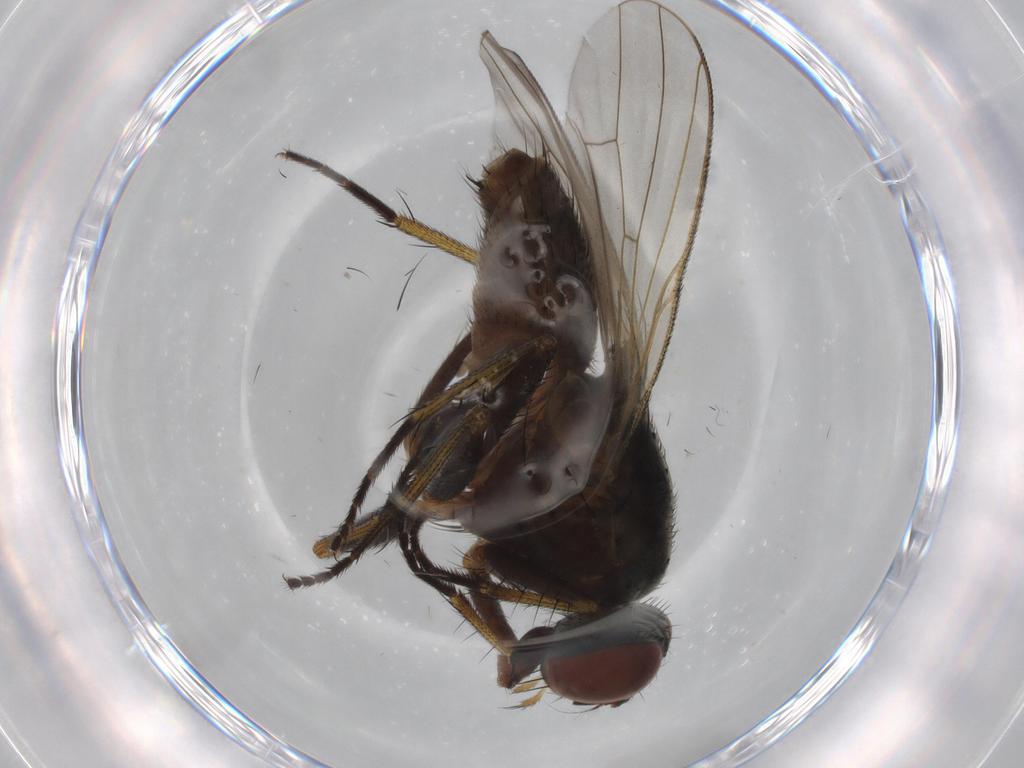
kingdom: Animalia
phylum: Arthropoda
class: Insecta
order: Diptera
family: Muscidae
